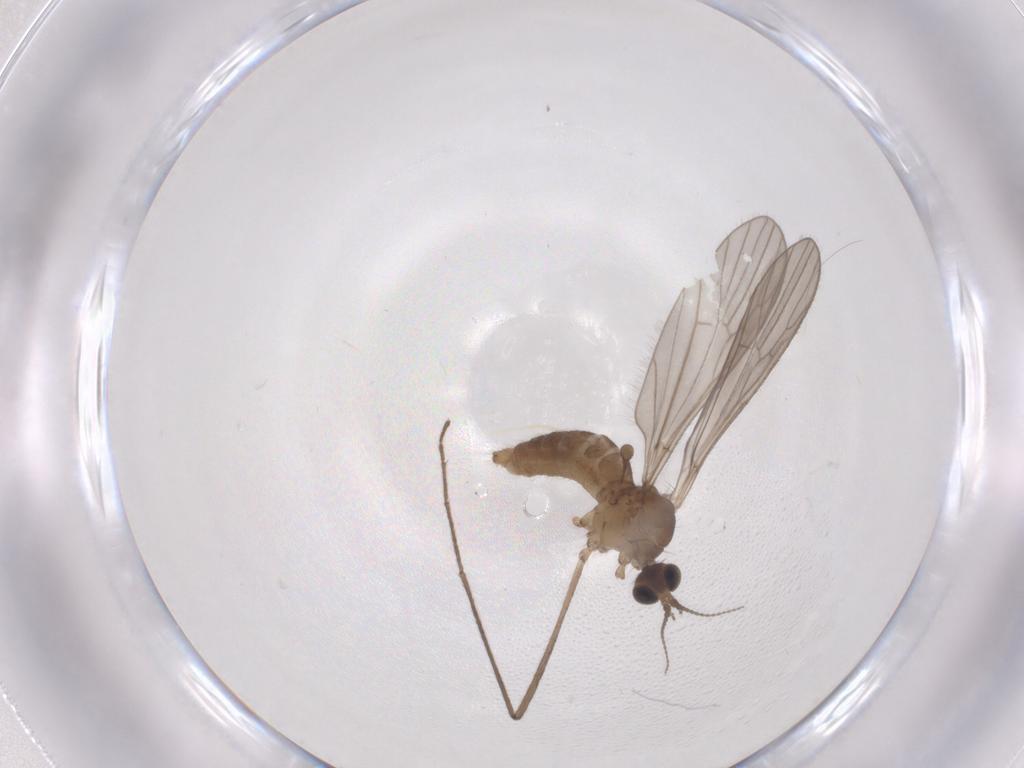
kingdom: Animalia
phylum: Arthropoda
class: Insecta
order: Diptera
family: Limoniidae
